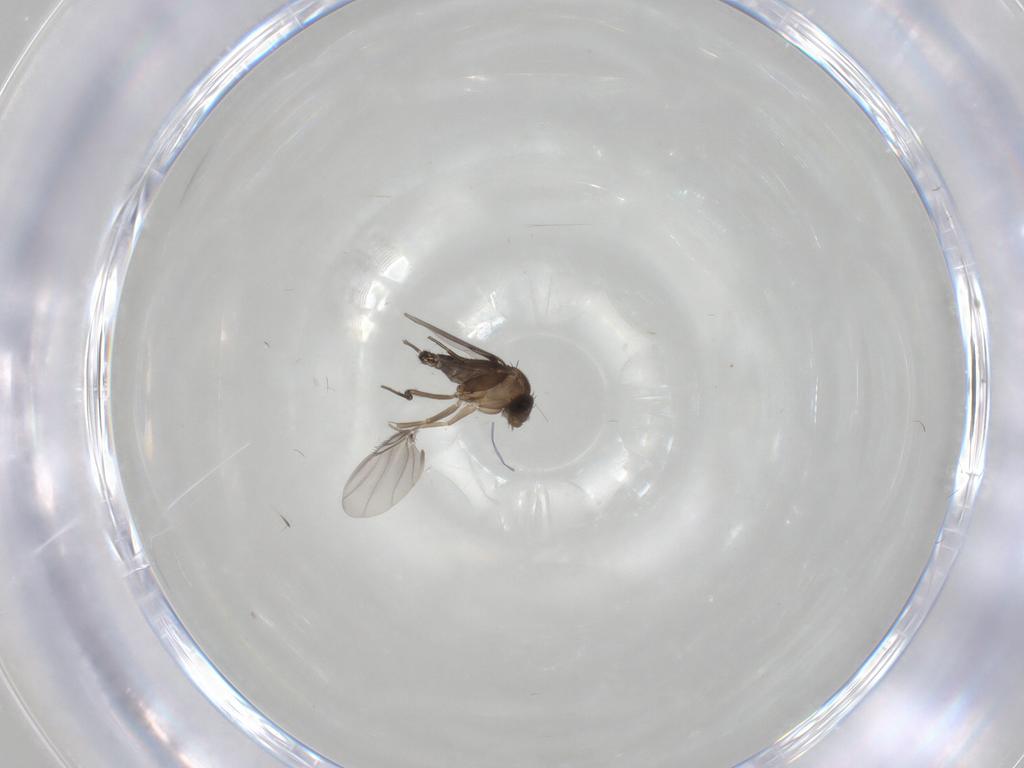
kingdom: Animalia
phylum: Arthropoda
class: Insecta
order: Diptera
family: Phoridae
